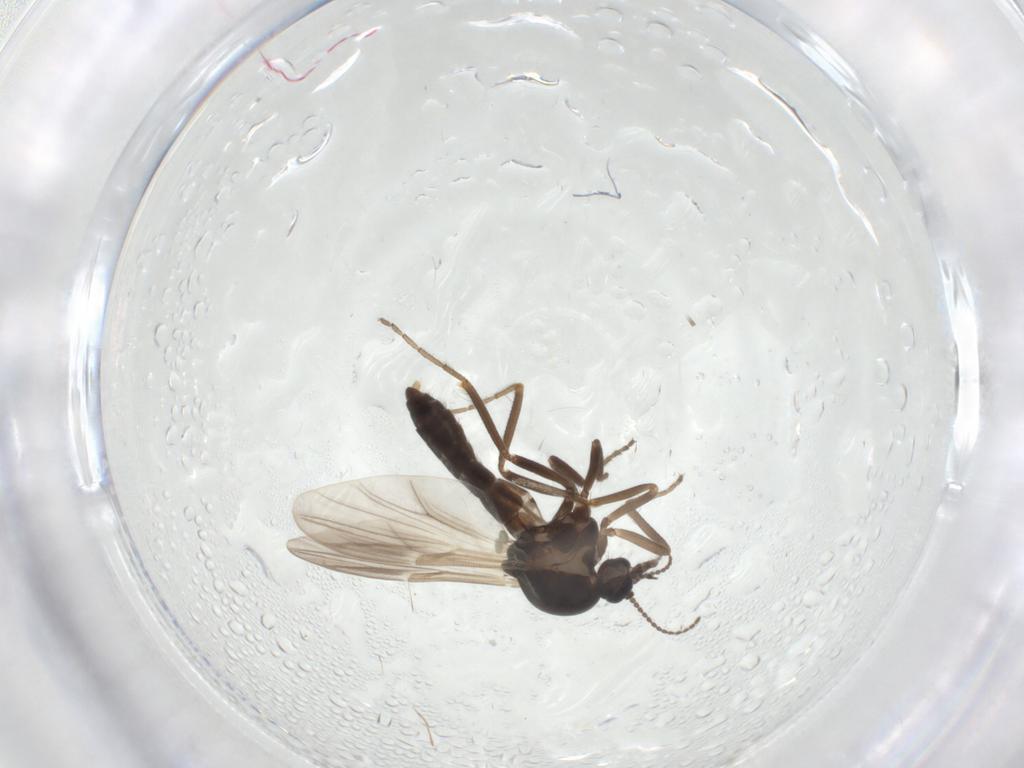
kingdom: Animalia
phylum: Arthropoda
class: Insecta
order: Diptera
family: Ceratopogonidae
